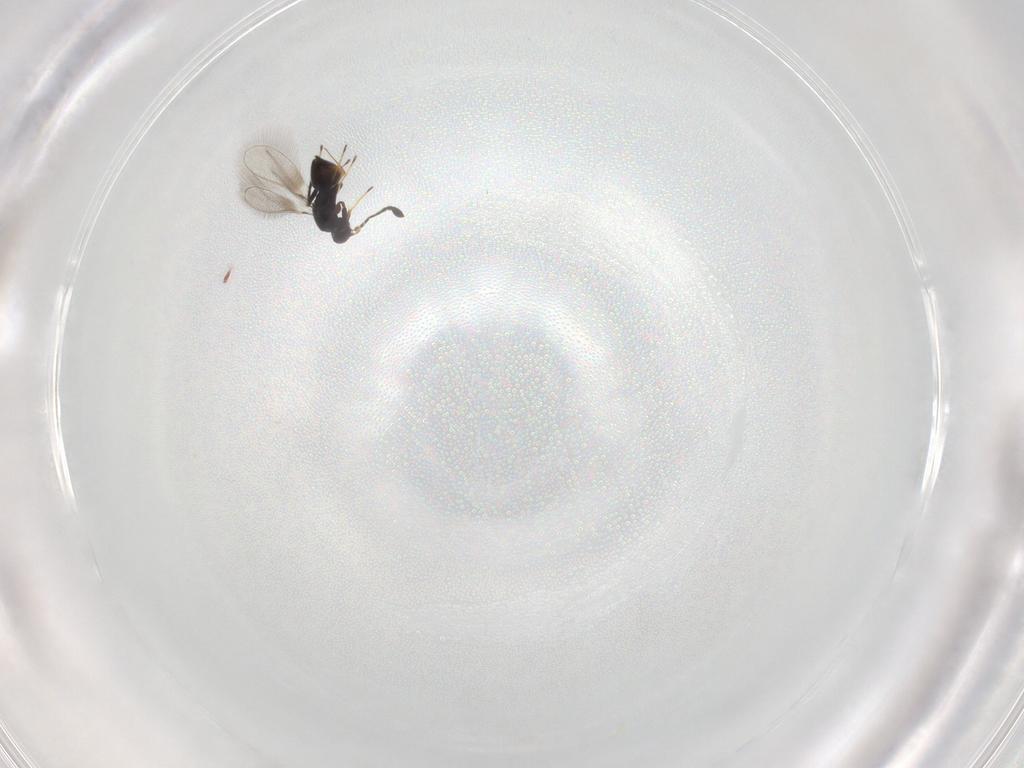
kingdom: Animalia
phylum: Arthropoda
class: Insecta
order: Hymenoptera
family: Mymaridae
